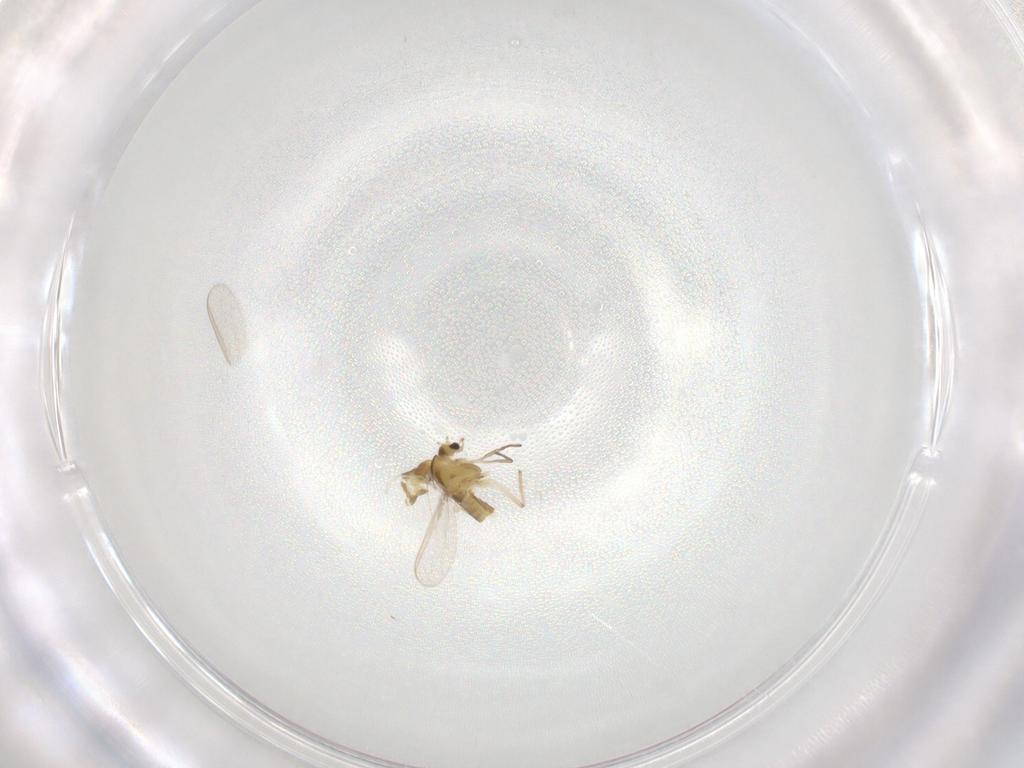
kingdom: Animalia
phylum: Arthropoda
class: Insecta
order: Diptera
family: Chironomidae
